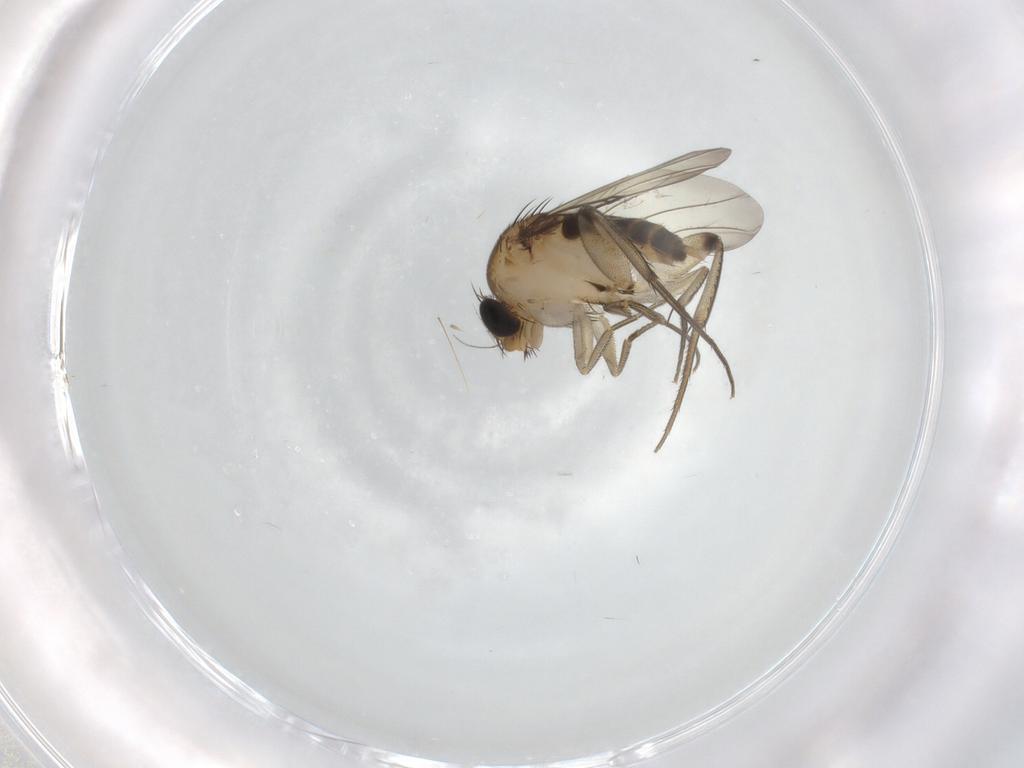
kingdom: Animalia
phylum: Arthropoda
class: Insecta
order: Diptera
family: Phoridae
